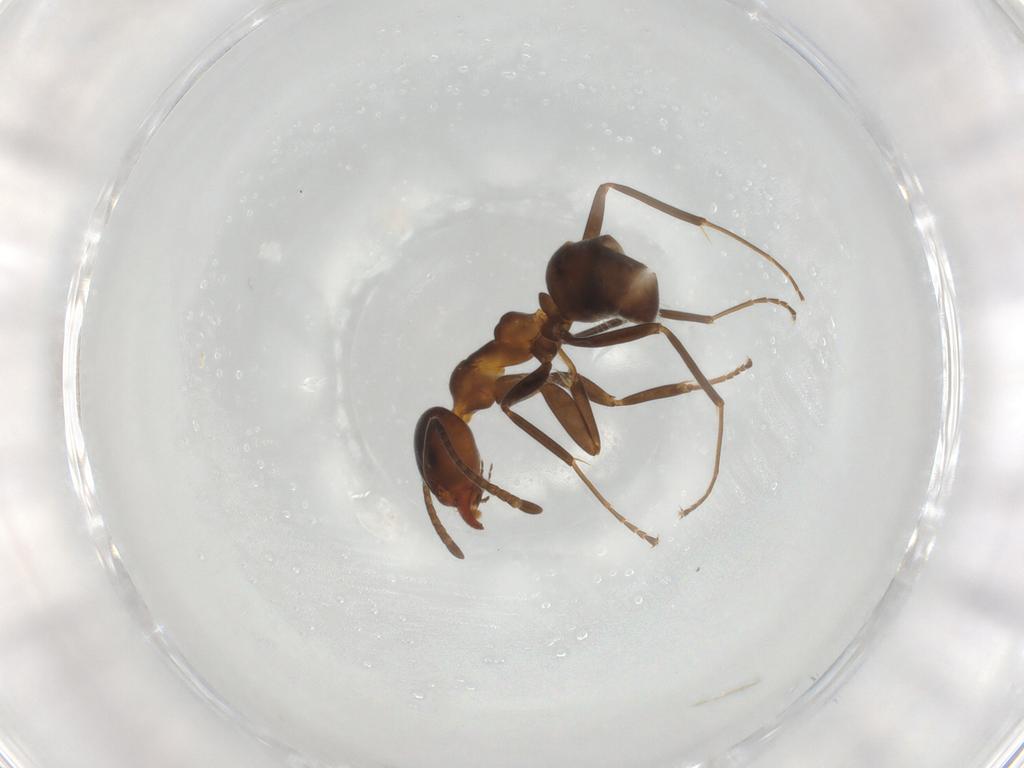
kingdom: Animalia
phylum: Arthropoda
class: Insecta
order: Hymenoptera
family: Formicidae
